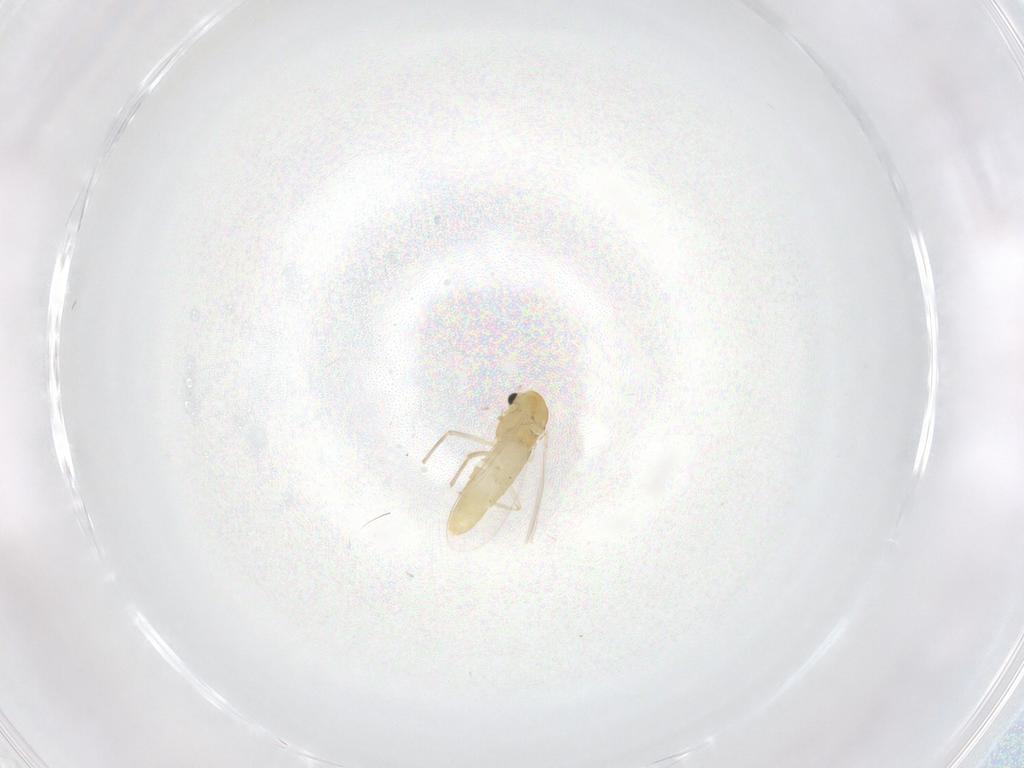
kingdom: Animalia
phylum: Arthropoda
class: Insecta
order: Diptera
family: Chironomidae
